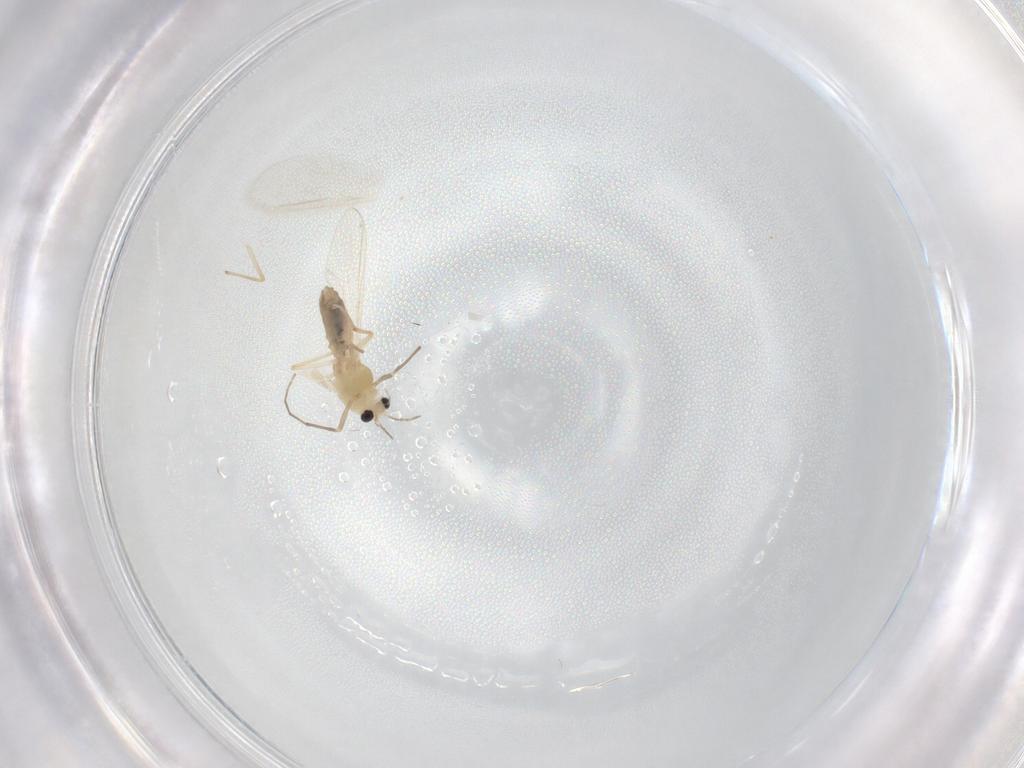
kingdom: Animalia
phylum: Arthropoda
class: Insecta
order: Diptera
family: Chironomidae
